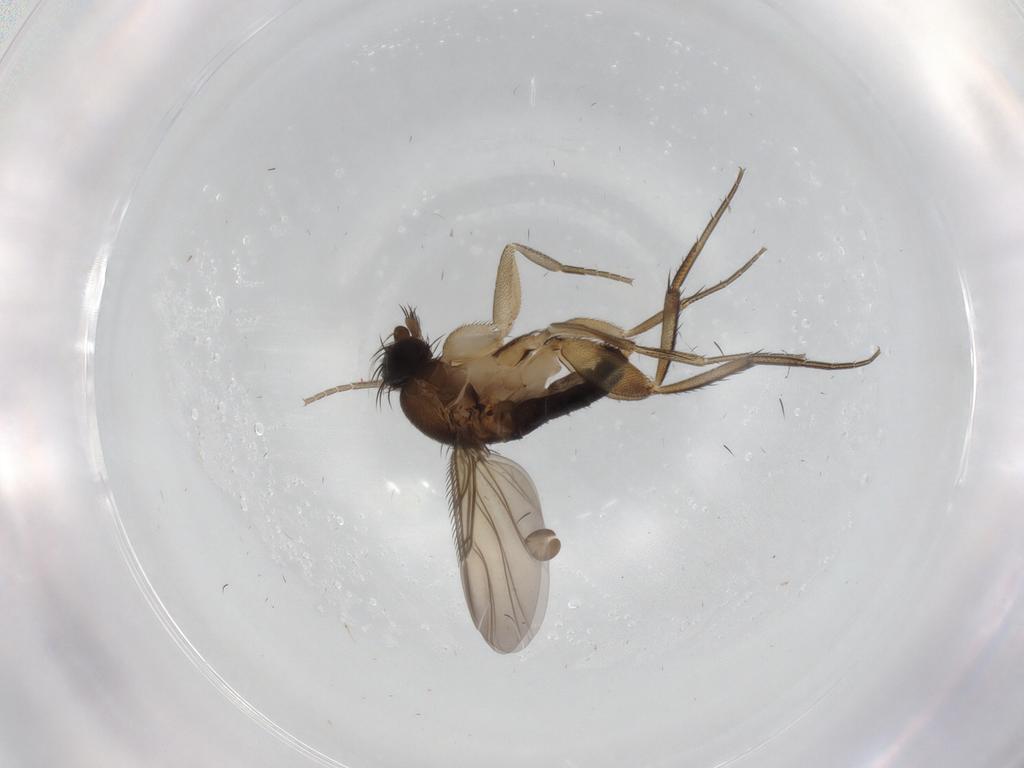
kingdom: Animalia
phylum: Arthropoda
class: Insecta
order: Diptera
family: Phoridae
